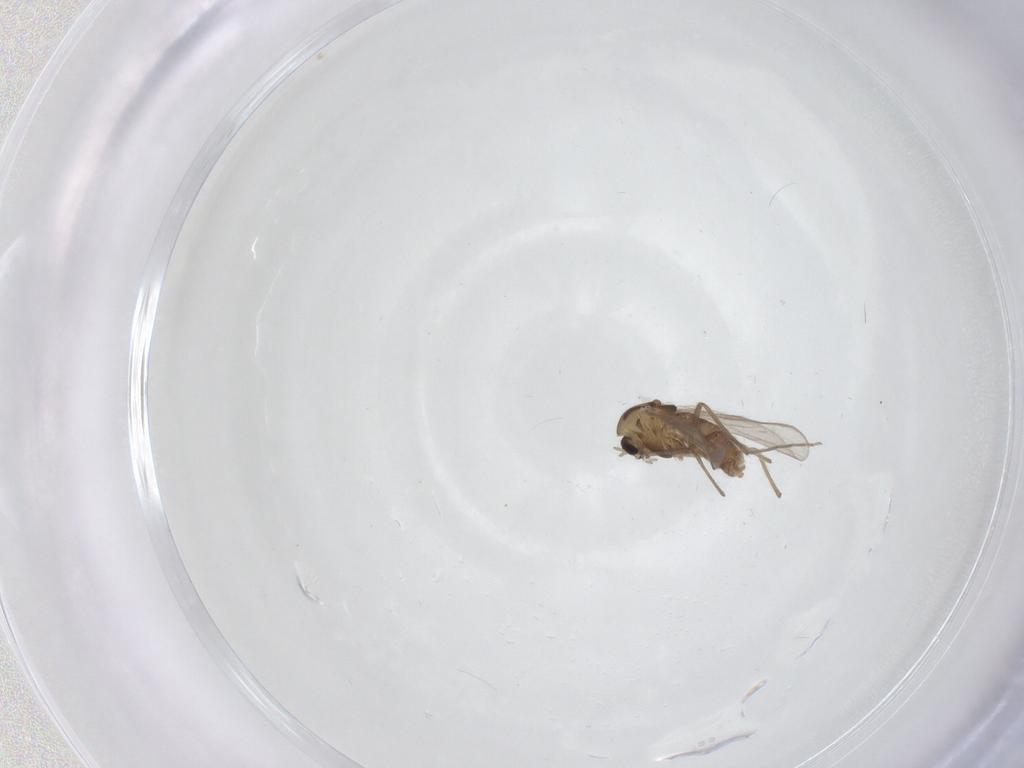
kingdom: Animalia
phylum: Arthropoda
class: Insecta
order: Diptera
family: Chironomidae
